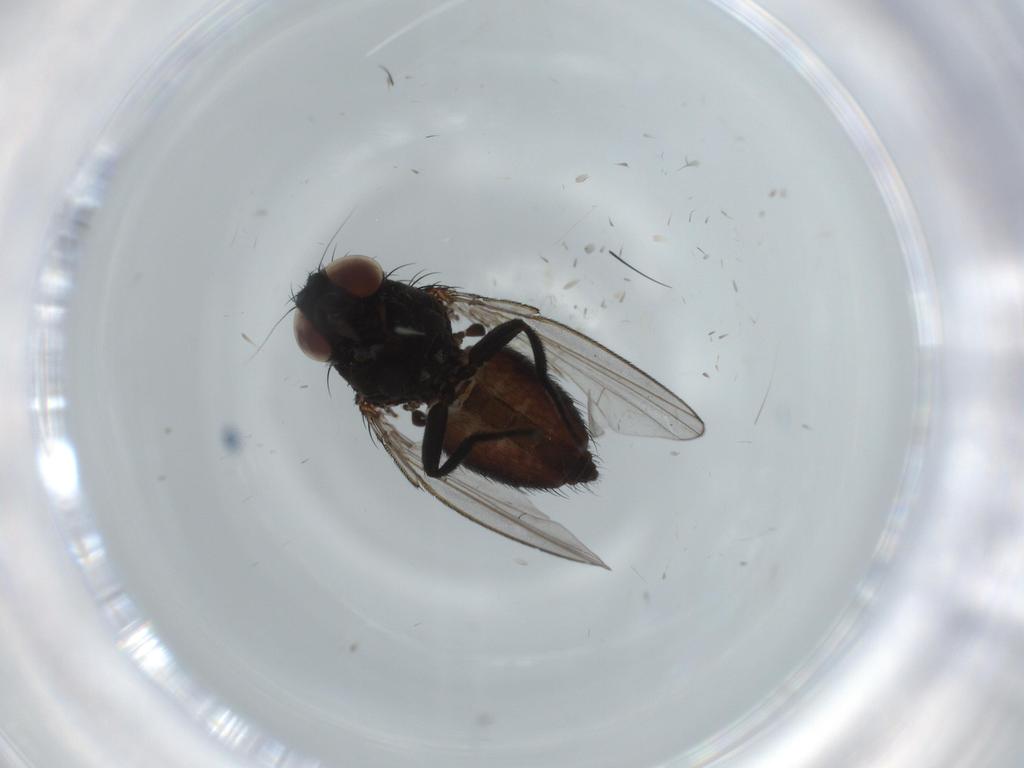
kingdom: Animalia
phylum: Arthropoda
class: Insecta
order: Diptera
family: Milichiidae
